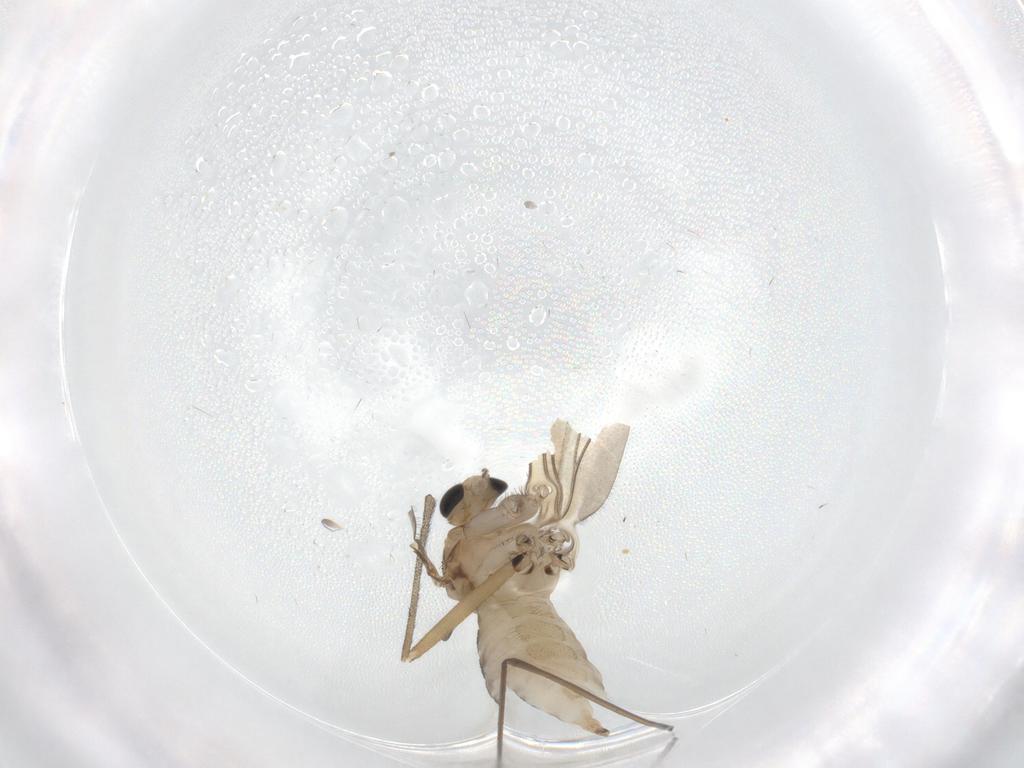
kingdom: Animalia
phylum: Arthropoda
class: Insecta
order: Diptera
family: Sciaridae
